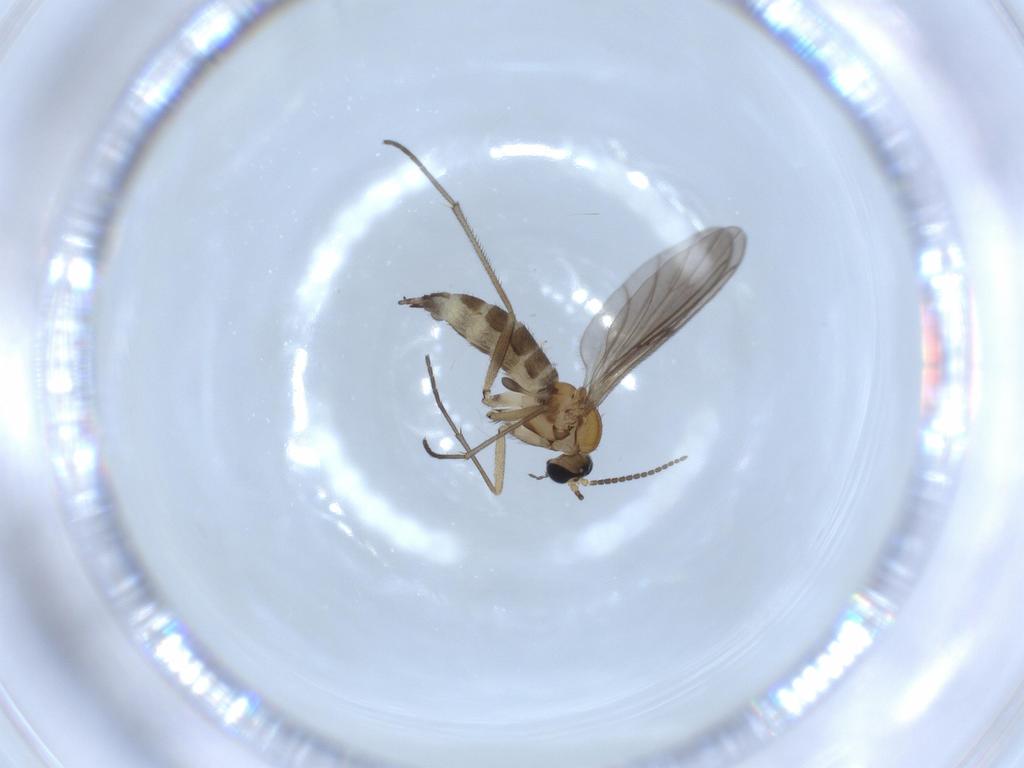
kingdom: Animalia
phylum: Arthropoda
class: Insecta
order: Diptera
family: Sciaridae
